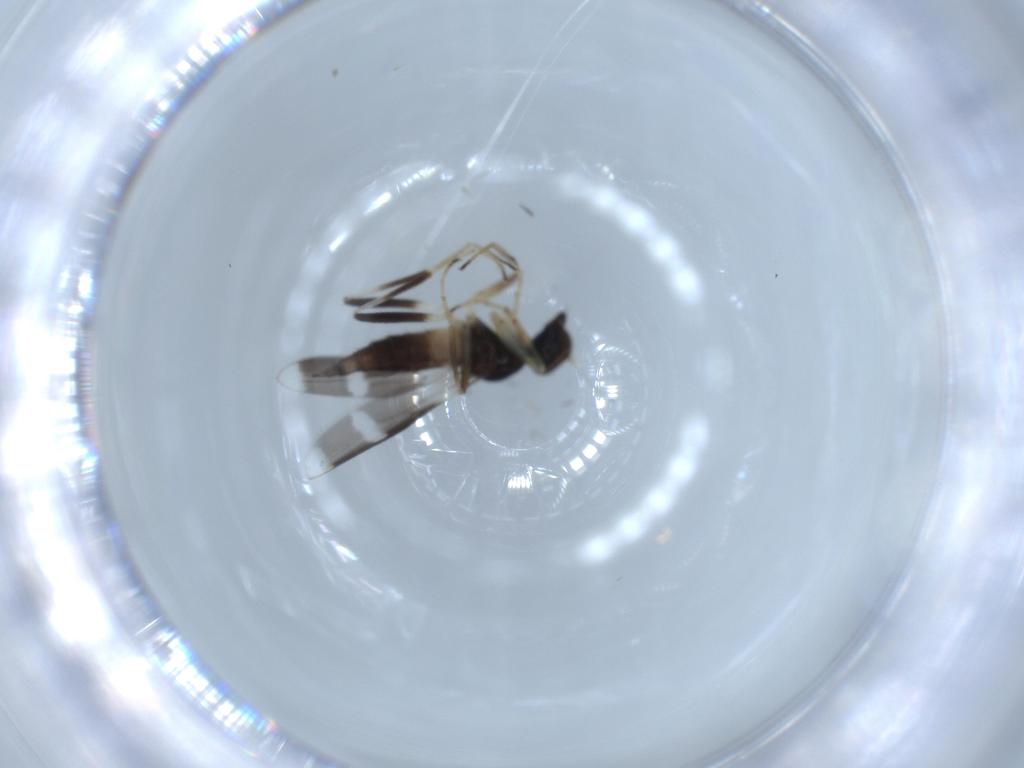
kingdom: Animalia
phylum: Arthropoda
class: Insecta
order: Diptera
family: Hybotidae
